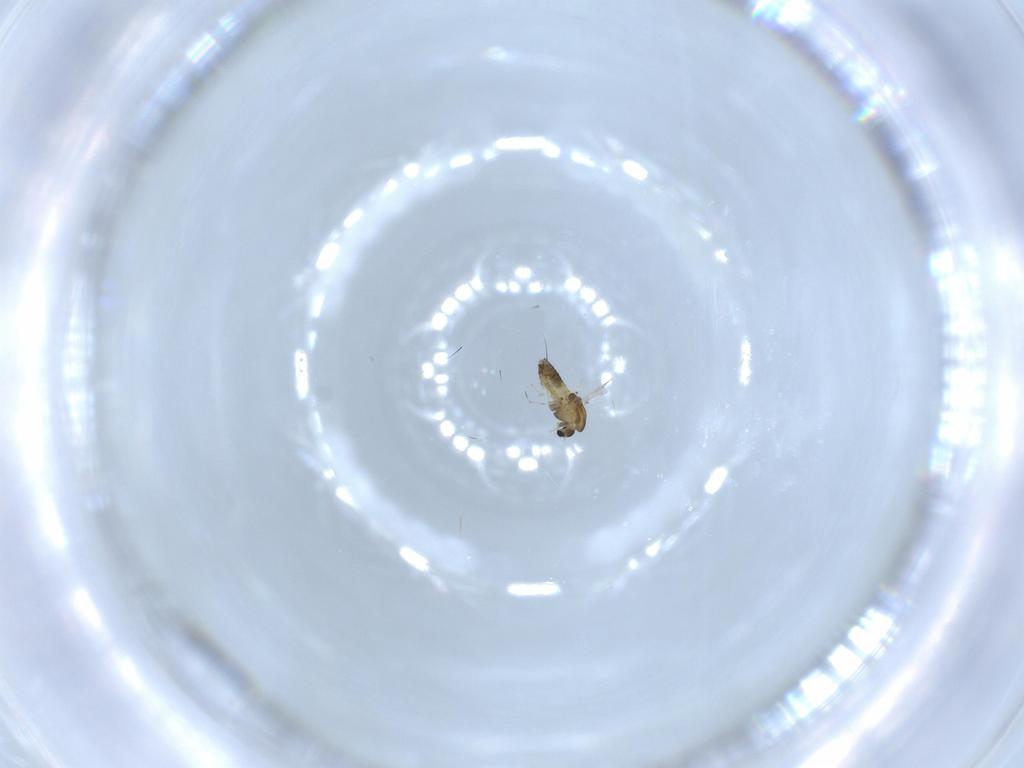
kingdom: Animalia
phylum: Arthropoda
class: Insecta
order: Diptera
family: Chironomidae
